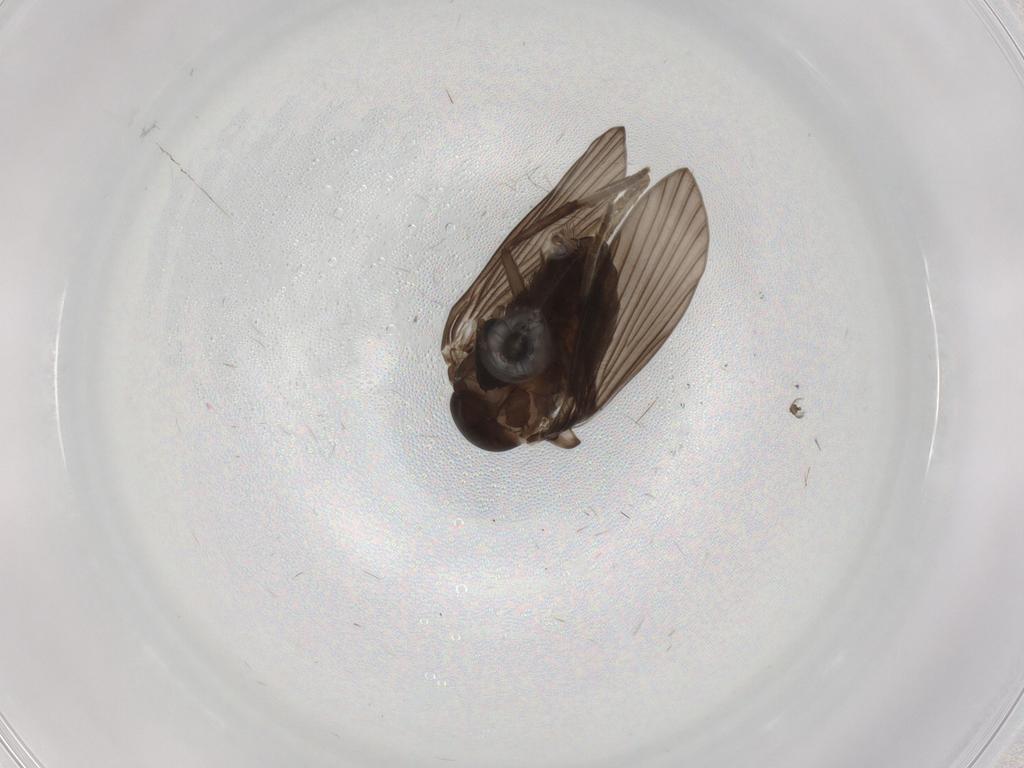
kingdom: Animalia
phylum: Arthropoda
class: Insecta
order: Diptera
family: Psychodidae
